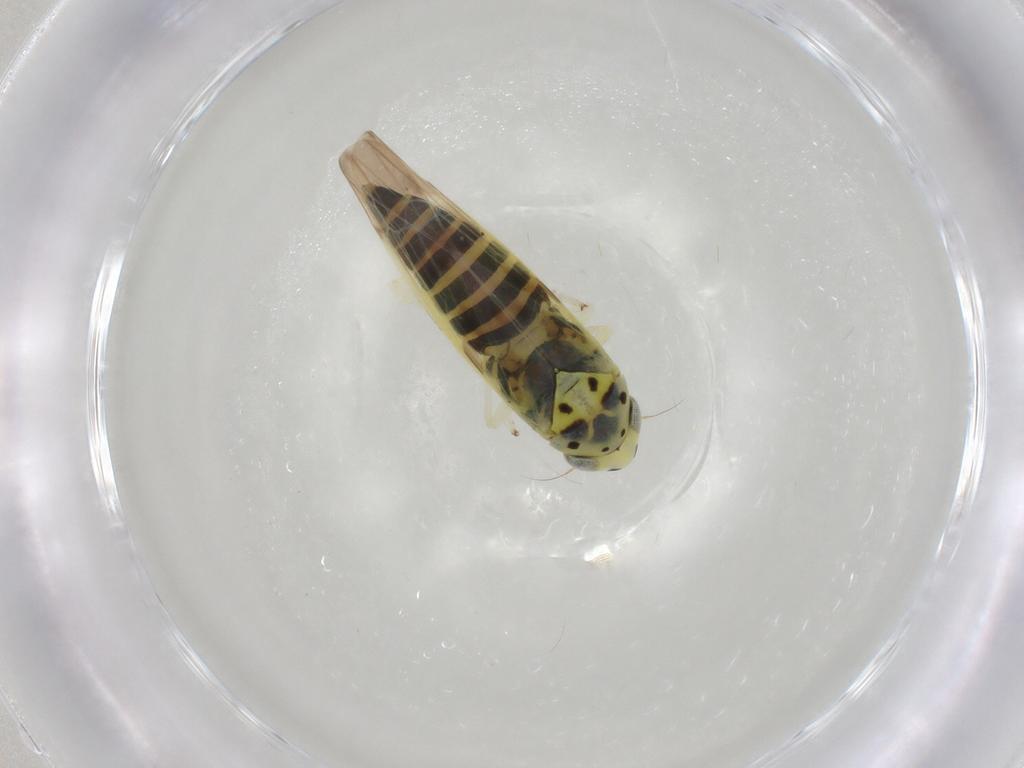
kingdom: Animalia
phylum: Arthropoda
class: Insecta
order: Hemiptera
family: Cicadellidae
